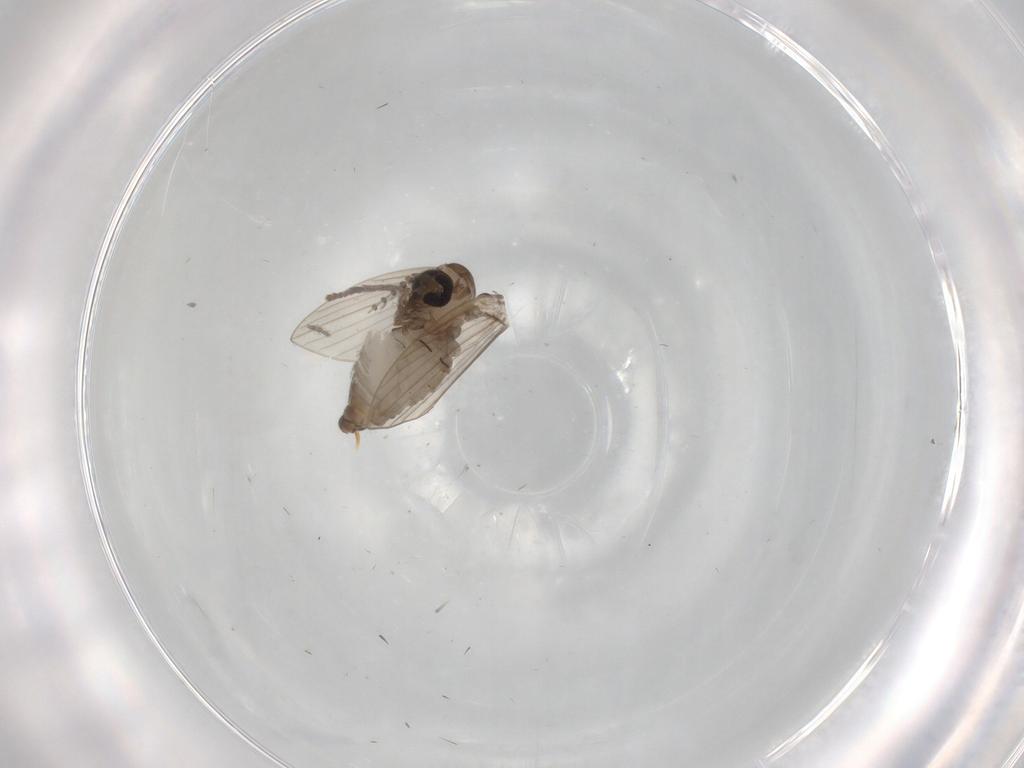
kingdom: Animalia
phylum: Arthropoda
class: Insecta
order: Diptera
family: Psychodidae
